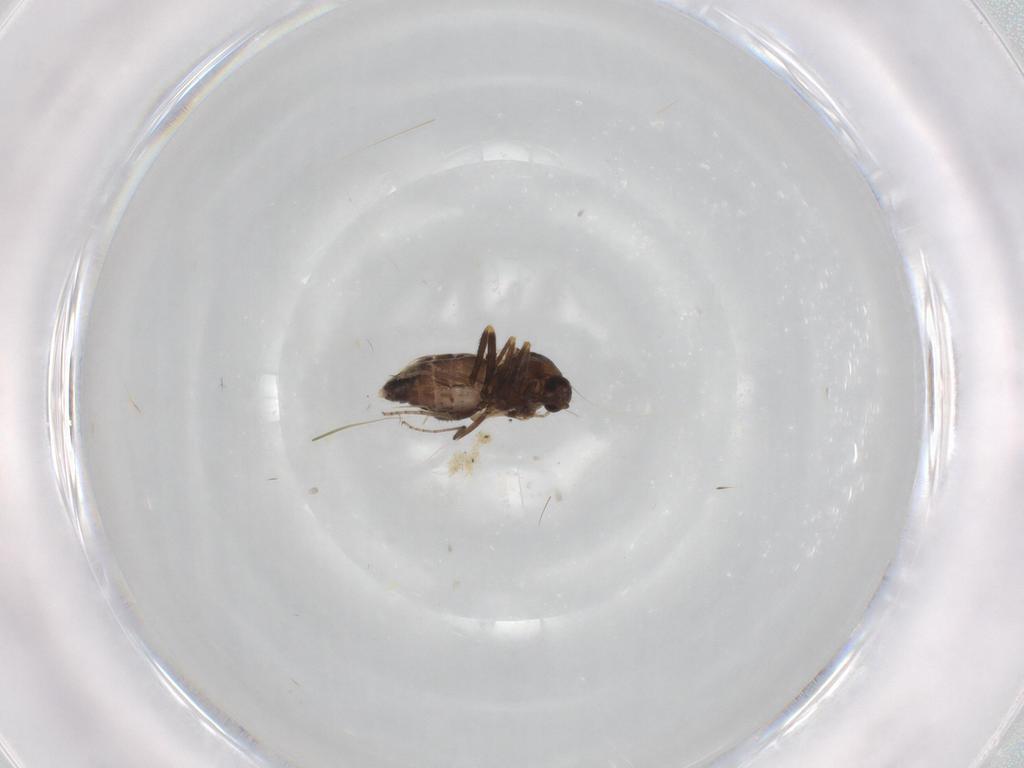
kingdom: Animalia
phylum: Arthropoda
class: Insecta
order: Diptera
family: Ceratopogonidae
